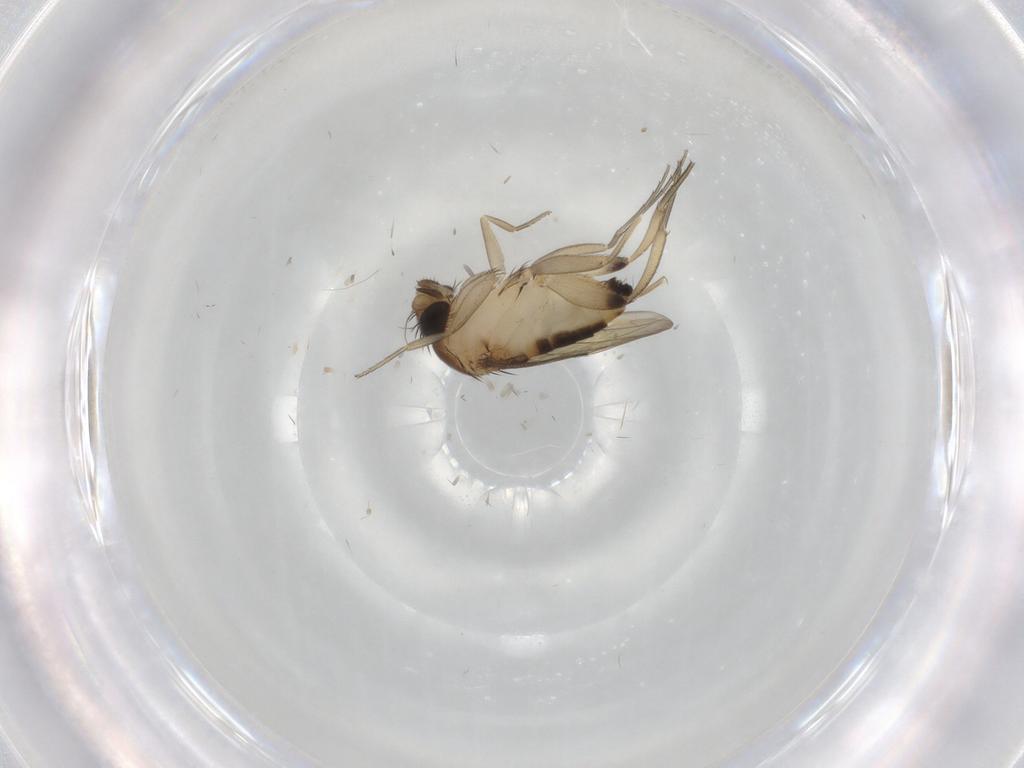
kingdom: Animalia
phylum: Arthropoda
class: Insecta
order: Diptera
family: Phoridae
